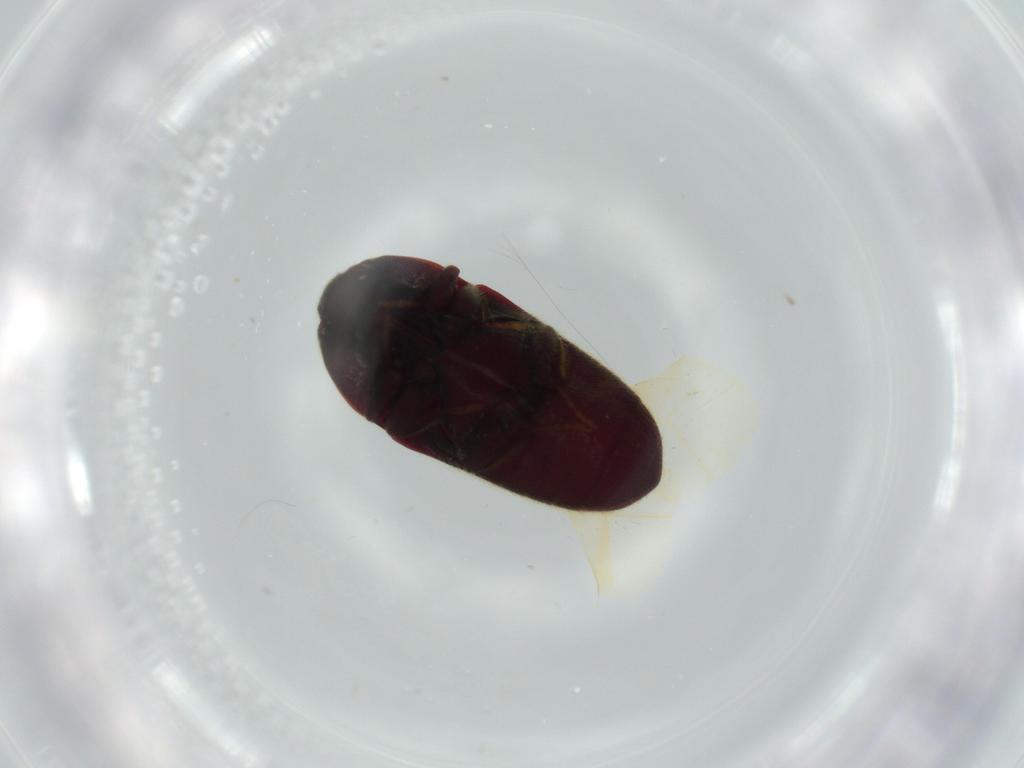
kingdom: Animalia
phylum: Arthropoda
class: Insecta
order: Coleoptera
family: Throscidae
